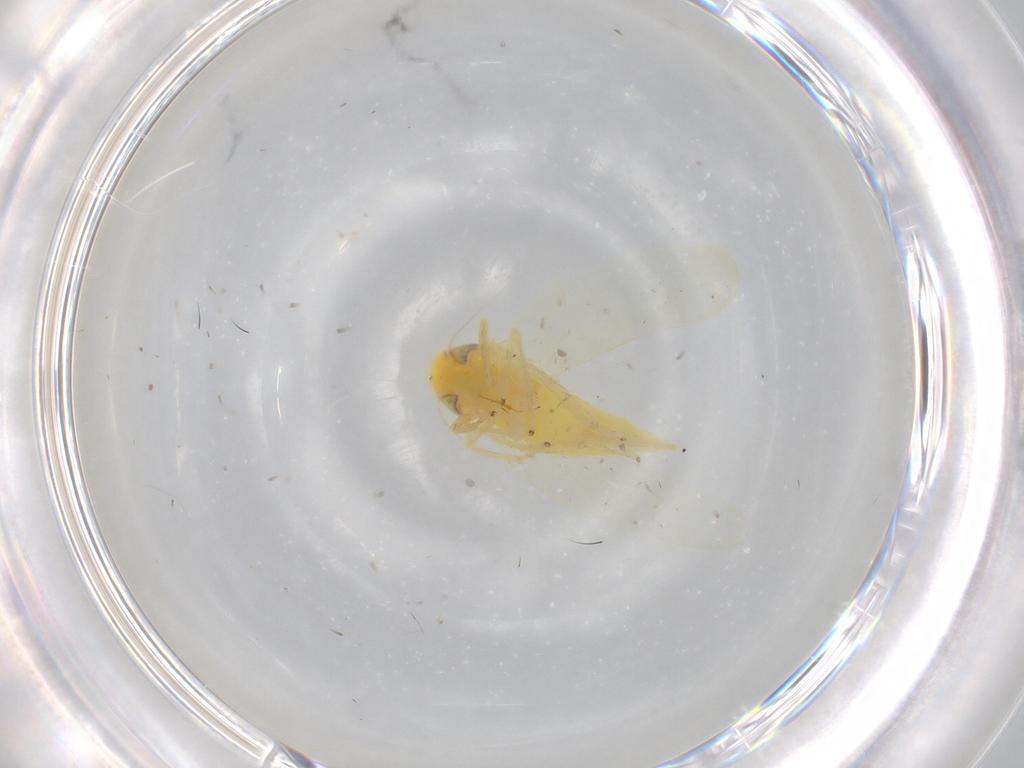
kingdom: Animalia
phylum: Arthropoda
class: Insecta
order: Hemiptera
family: Cicadellidae
